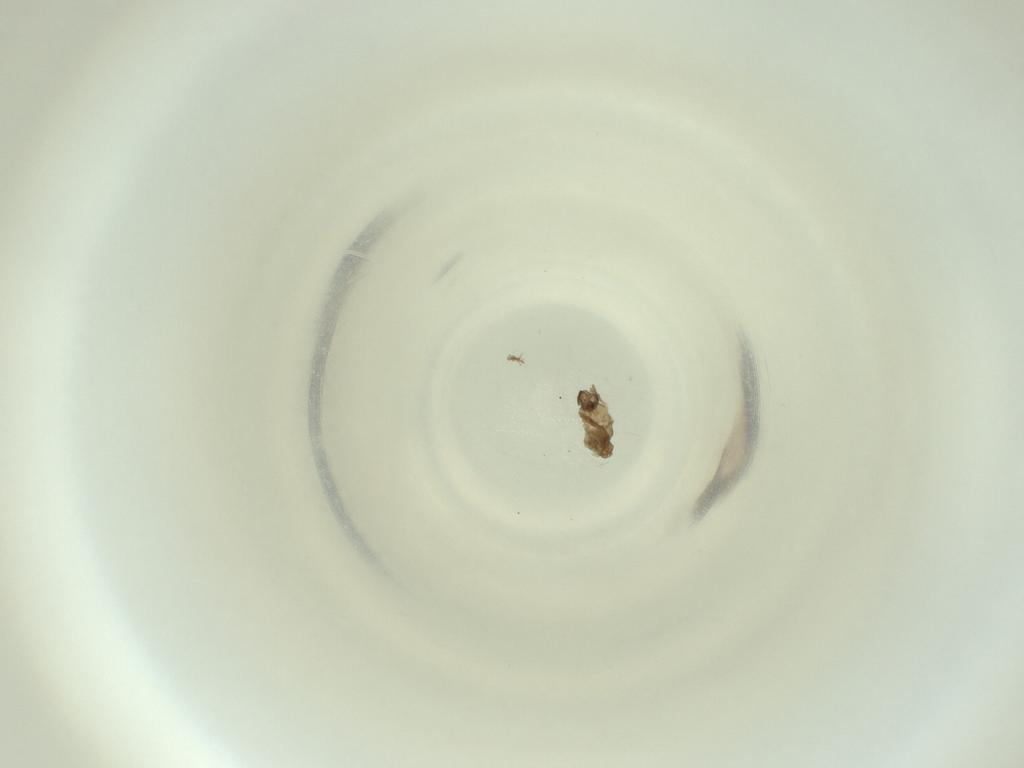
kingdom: Animalia
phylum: Arthropoda
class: Insecta
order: Diptera
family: Cecidomyiidae
